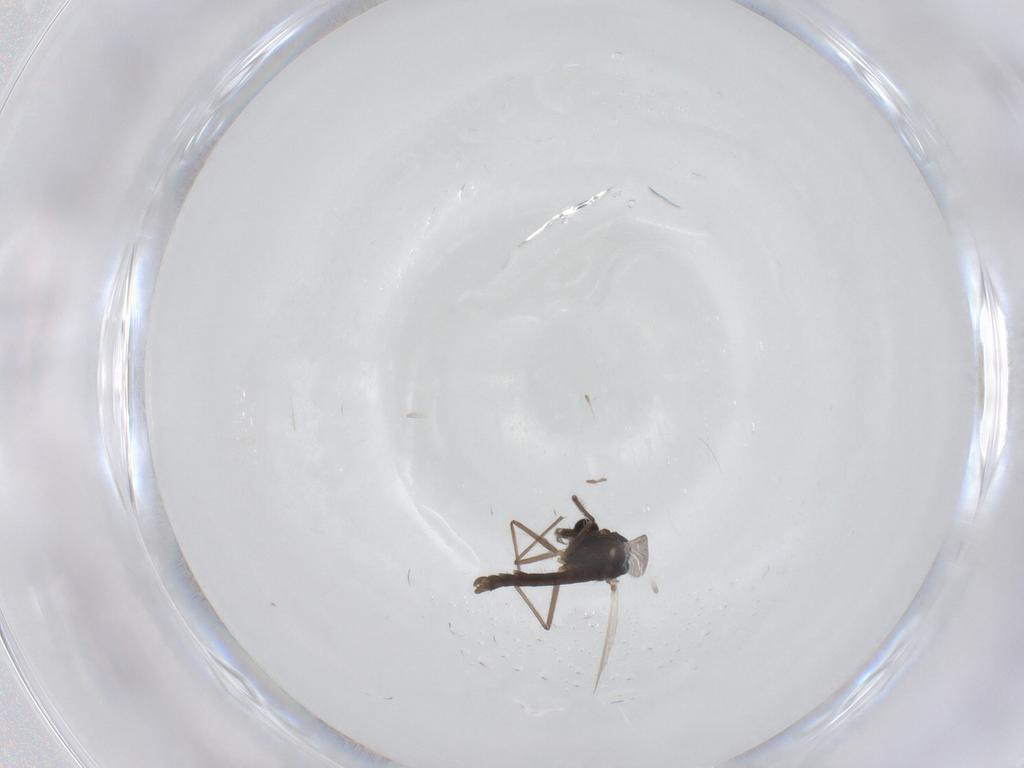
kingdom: Animalia
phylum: Arthropoda
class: Insecta
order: Diptera
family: Chironomidae
